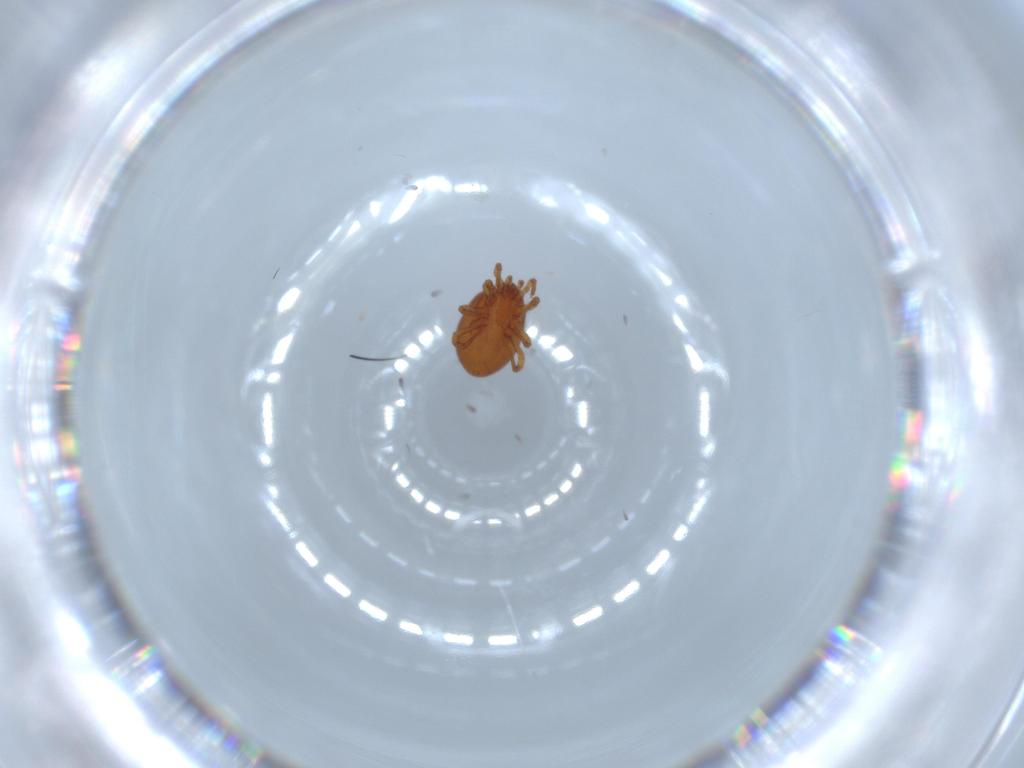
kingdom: Animalia
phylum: Arthropoda
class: Arachnida
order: Mesostigmata
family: Parasitidae
